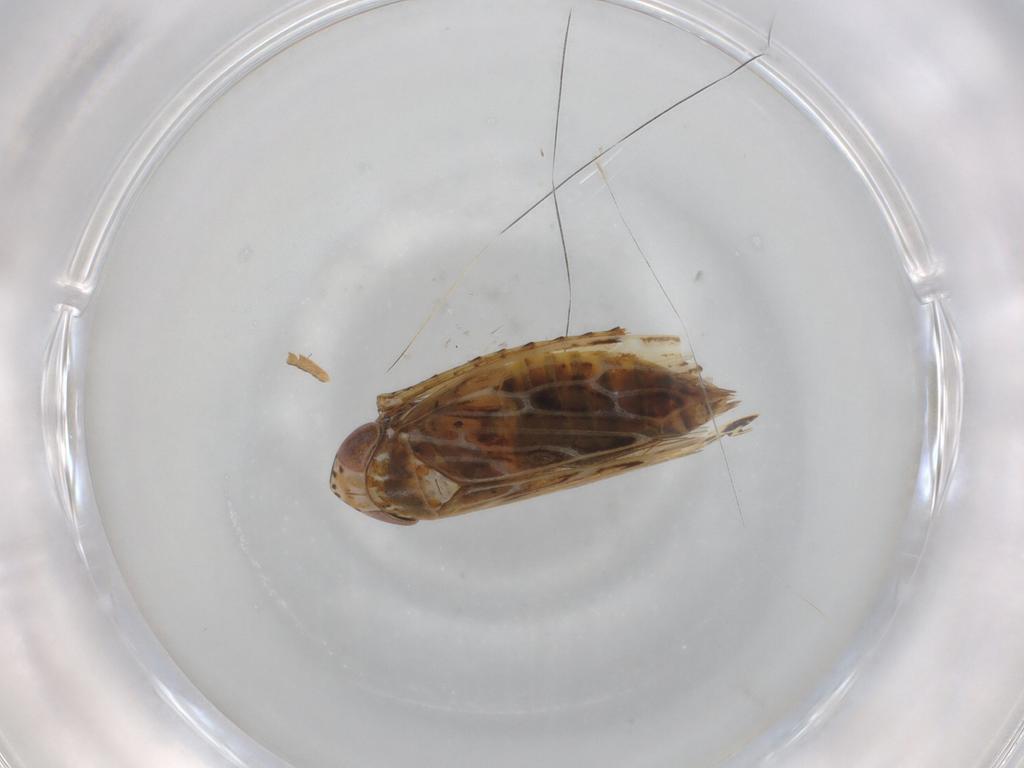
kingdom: Animalia
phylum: Arthropoda
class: Insecta
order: Hemiptera
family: Cicadellidae
